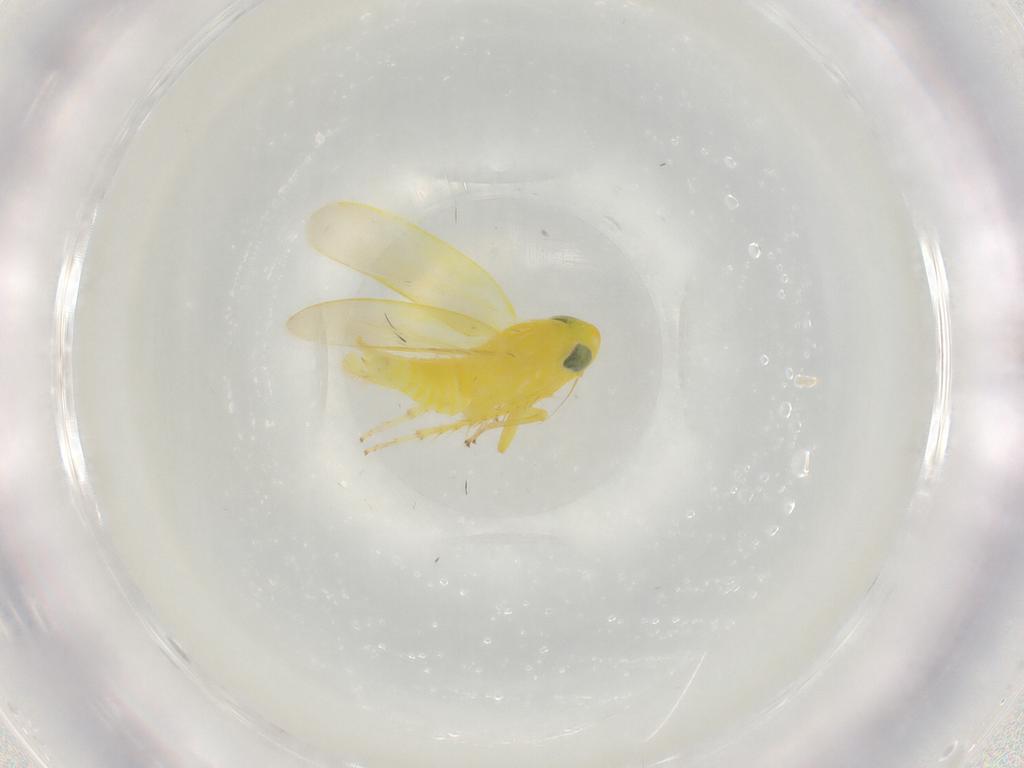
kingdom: Animalia
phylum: Arthropoda
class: Insecta
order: Hemiptera
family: Cicadellidae
